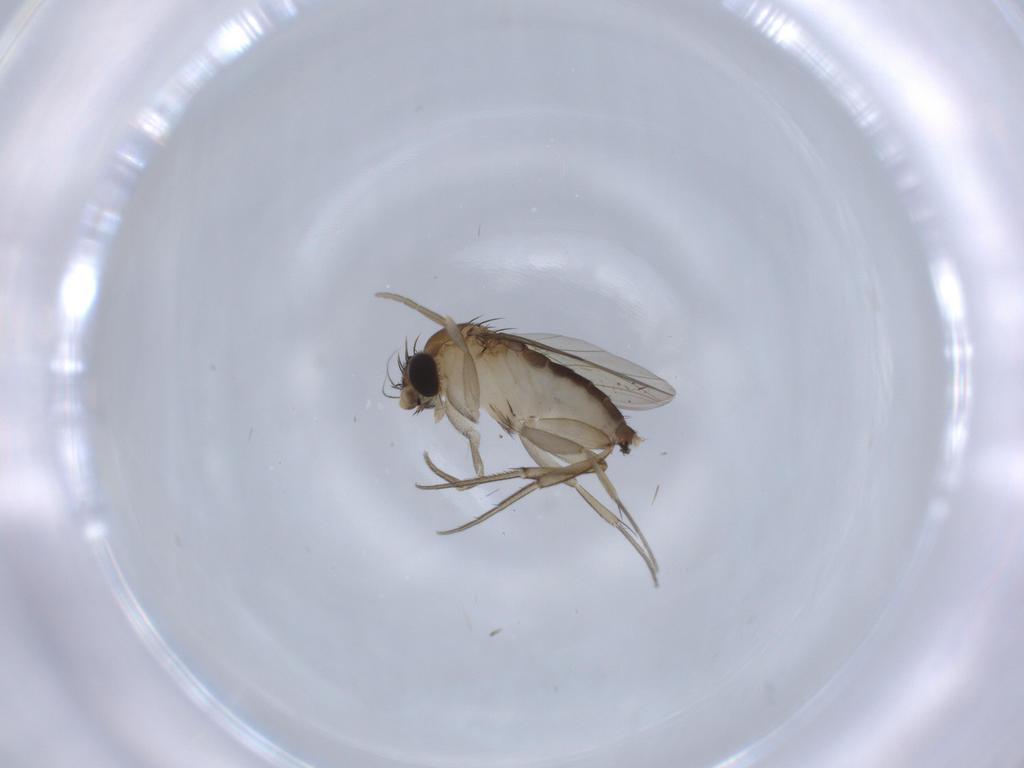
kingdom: Animalia
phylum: Arthropoda
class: Insecta
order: Diptera
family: Phoridae
